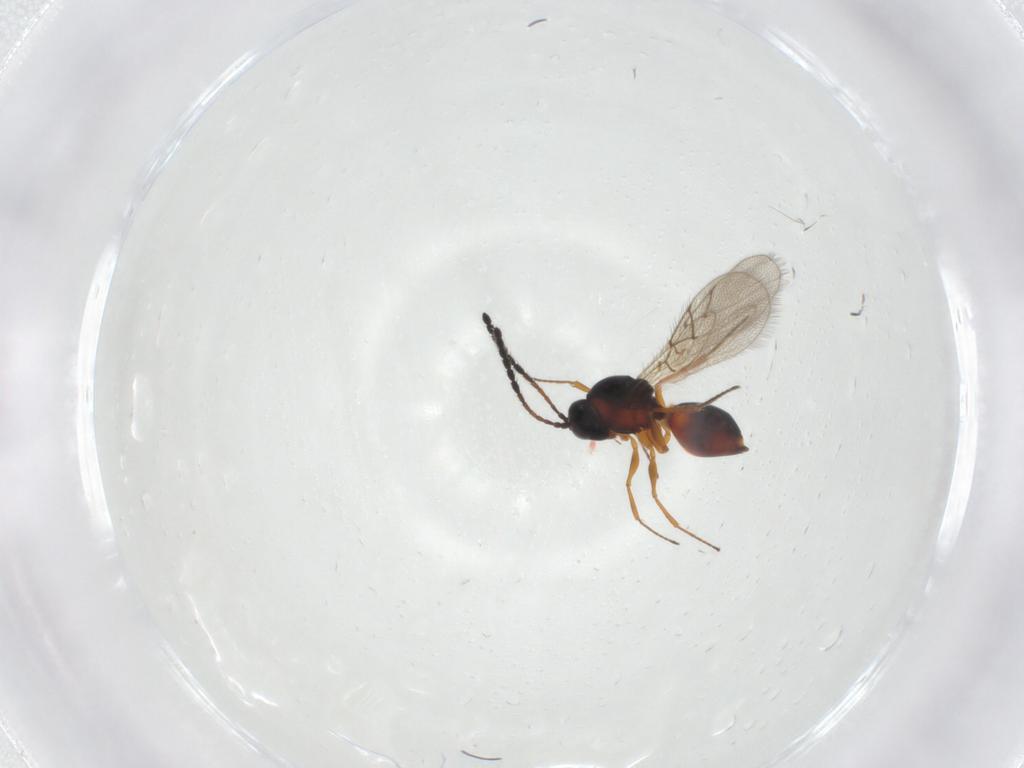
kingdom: Animalia
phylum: Arthropoda
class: Insecta
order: Hymenoptera
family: Figitidae
